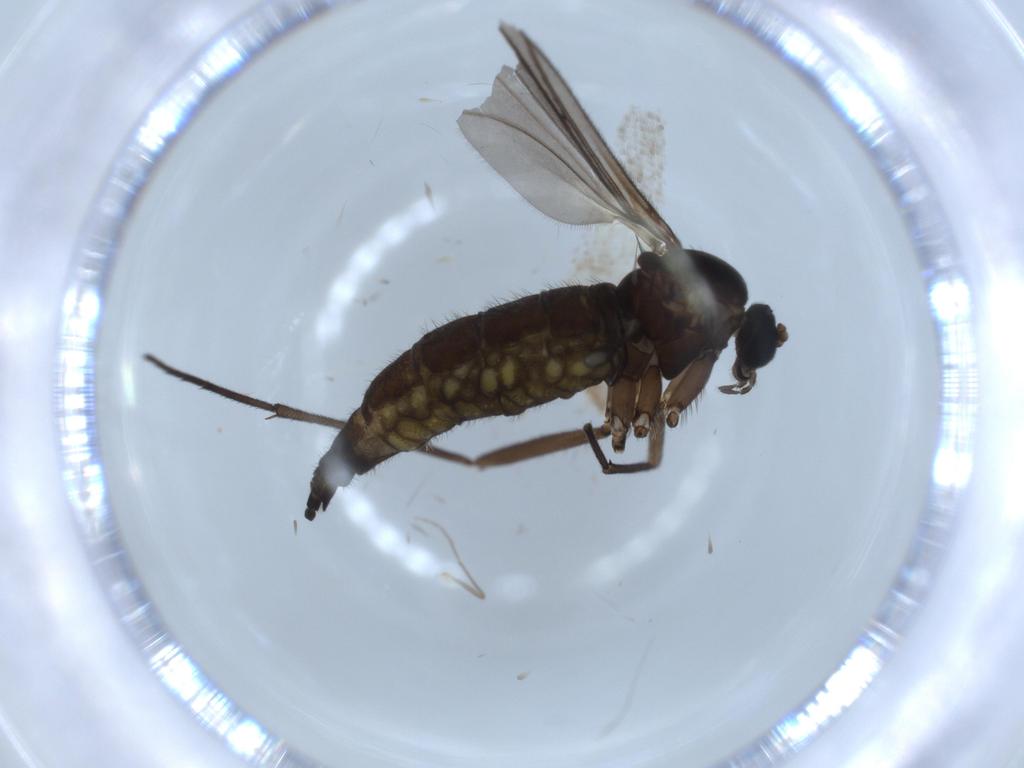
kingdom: Animalia
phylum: Arthropoda
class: Insecta
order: Diptera
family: Sciaridae
